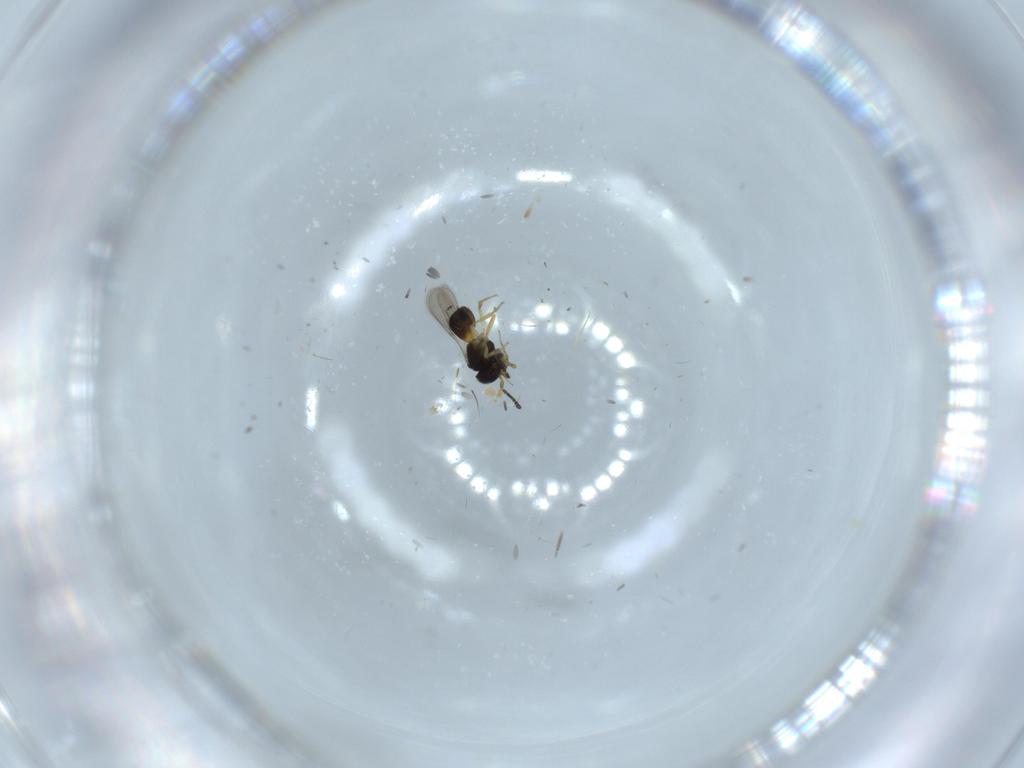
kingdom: Animalia
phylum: Arthropoda
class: Insecta
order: Hymenoptera
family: Scelionidae
